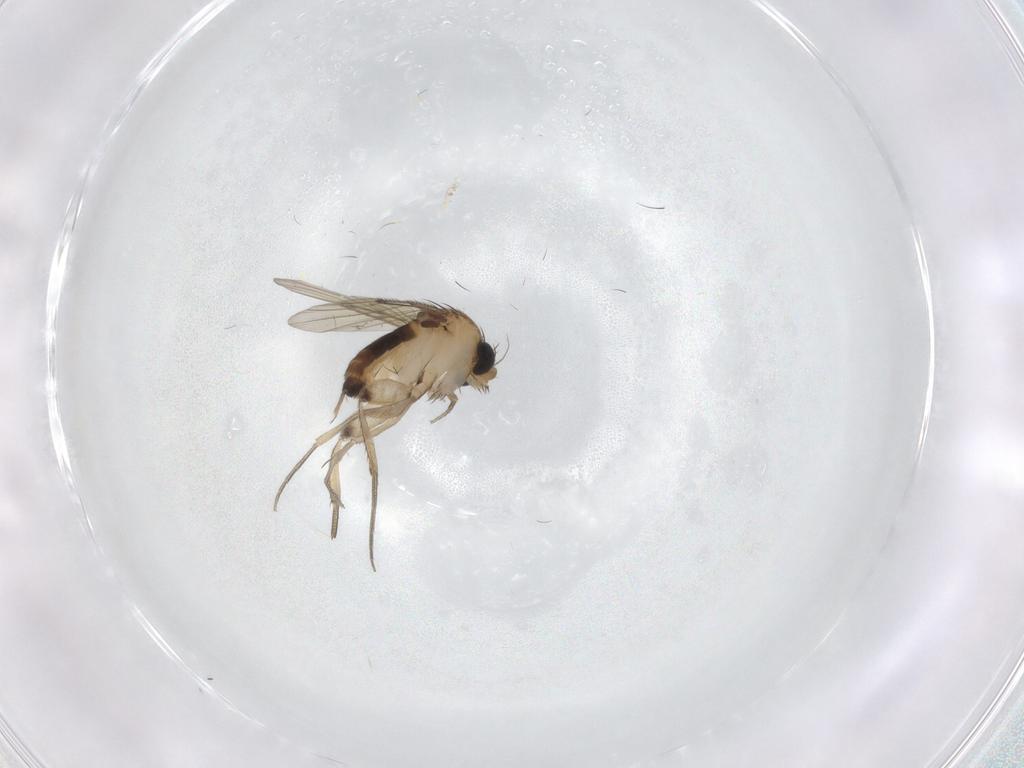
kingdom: Animalia
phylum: Arthropoda
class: Insecta
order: Diptera
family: Phoridae
